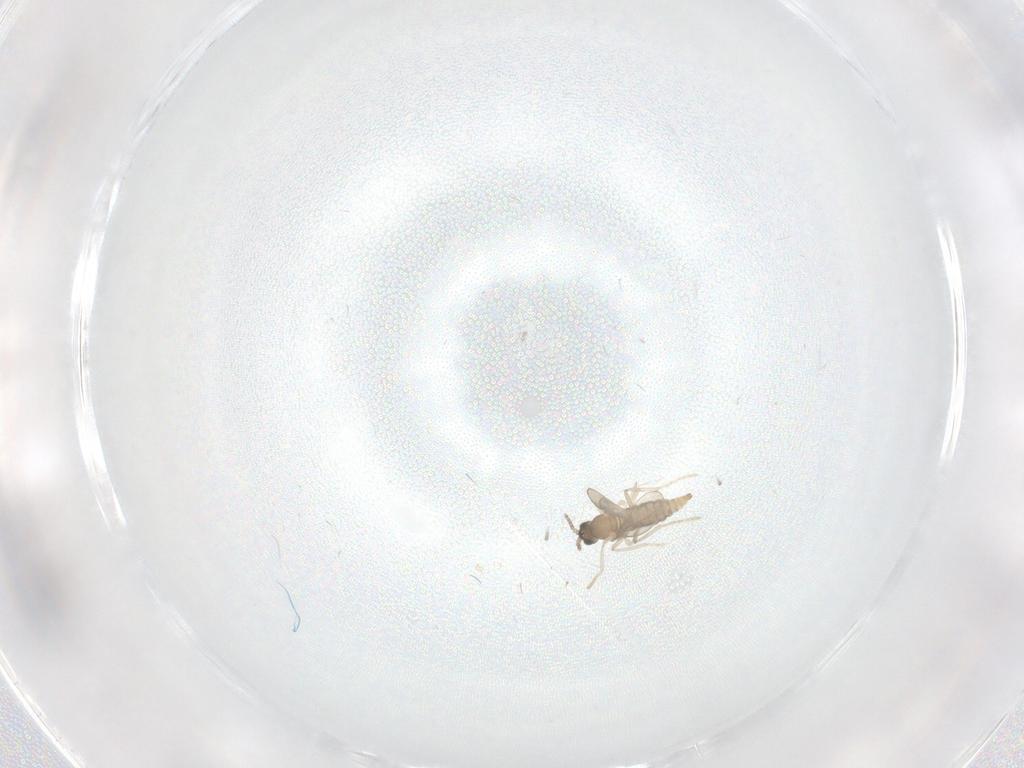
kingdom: Animalia
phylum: Arthropoda
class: Insecta
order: Diptera
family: Cecidomyiidae
